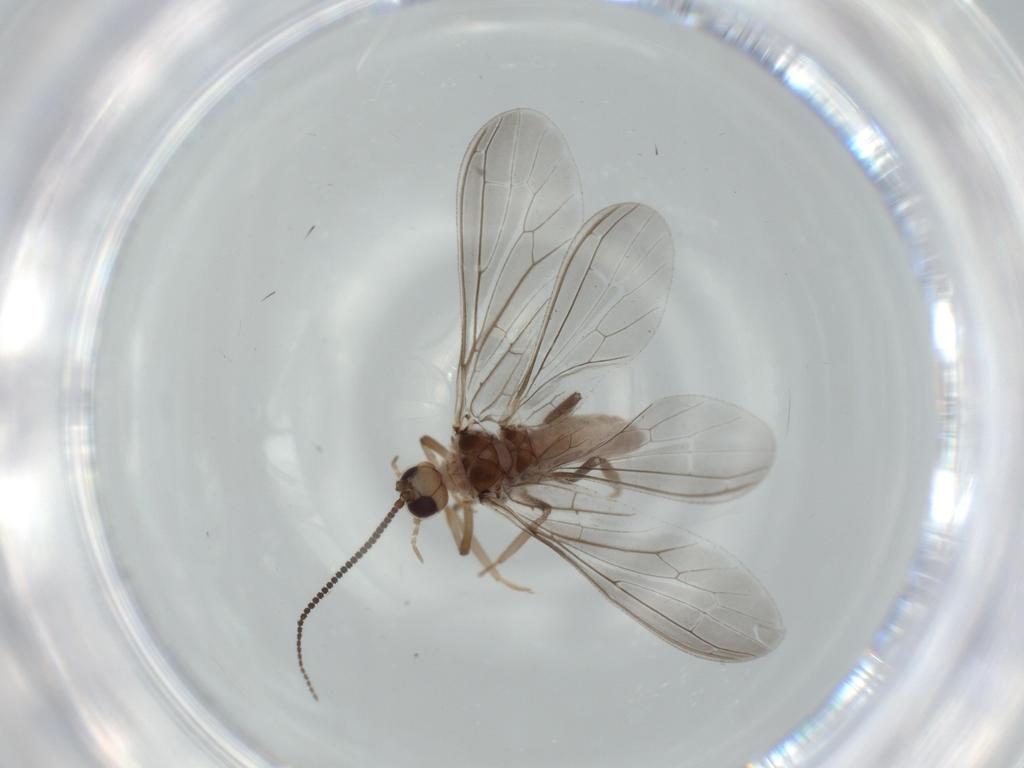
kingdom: Animalia
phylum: Arthropoda
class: Insecta
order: Neuroptera
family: Coniopterygidae
